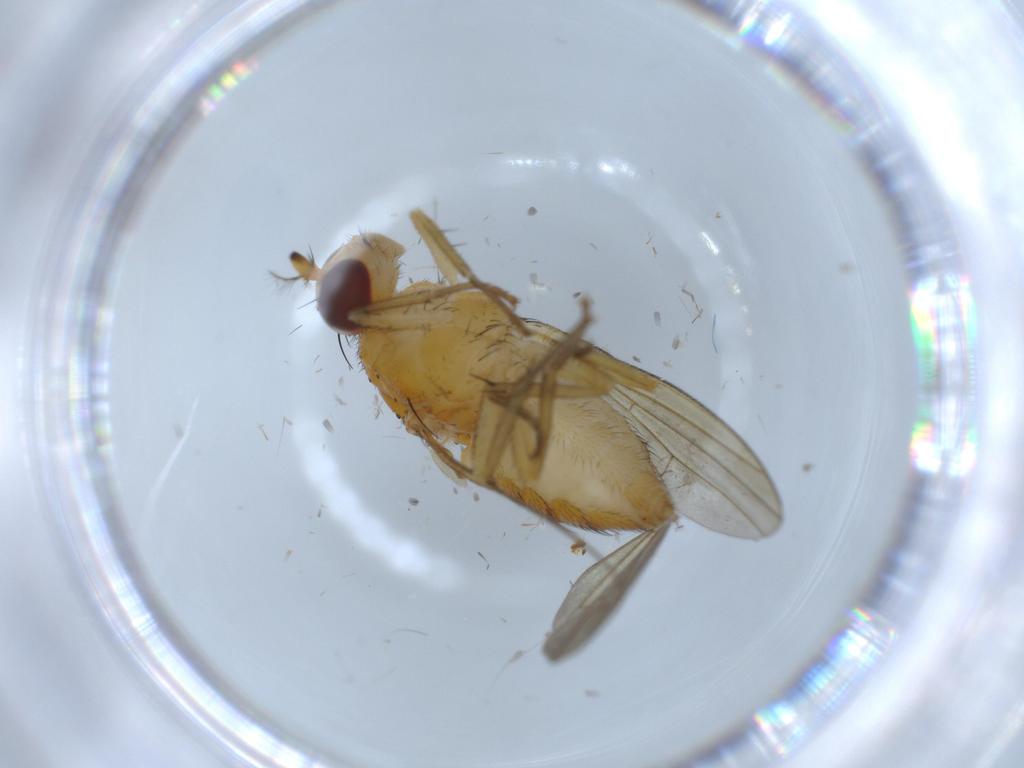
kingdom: Animalia
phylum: Arthropoda
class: Insecta
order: Diptera
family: Lauxaniidae
